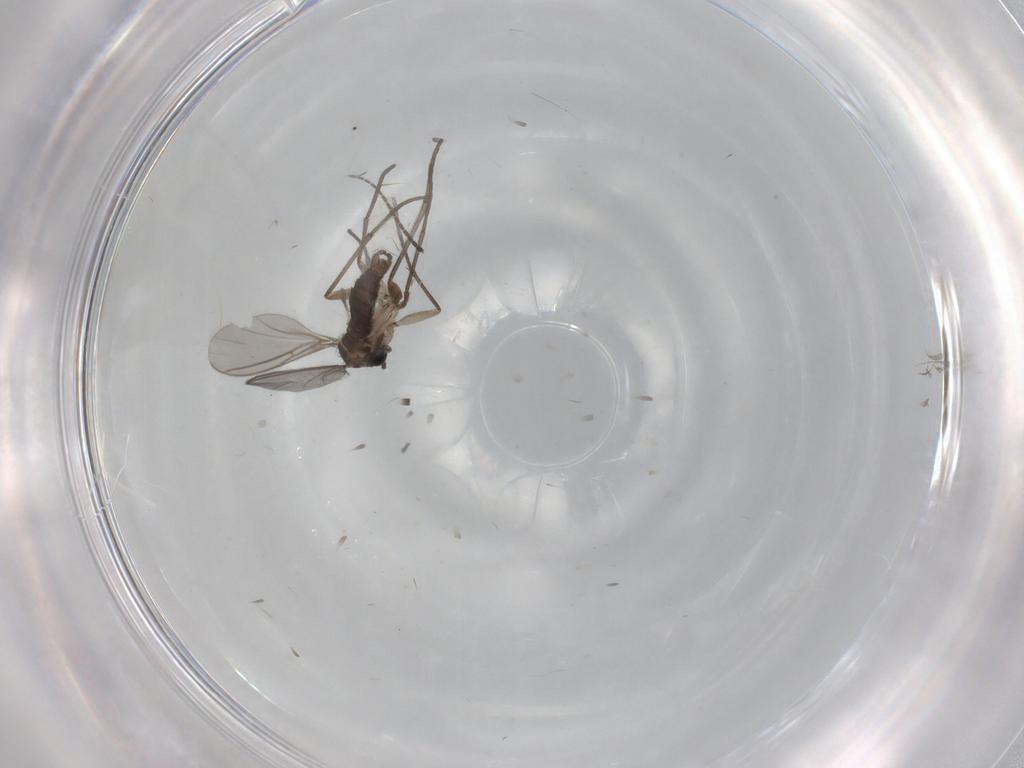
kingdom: Animalia
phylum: Arthropoda
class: Insecta
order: Diptera
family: Sciaridae
